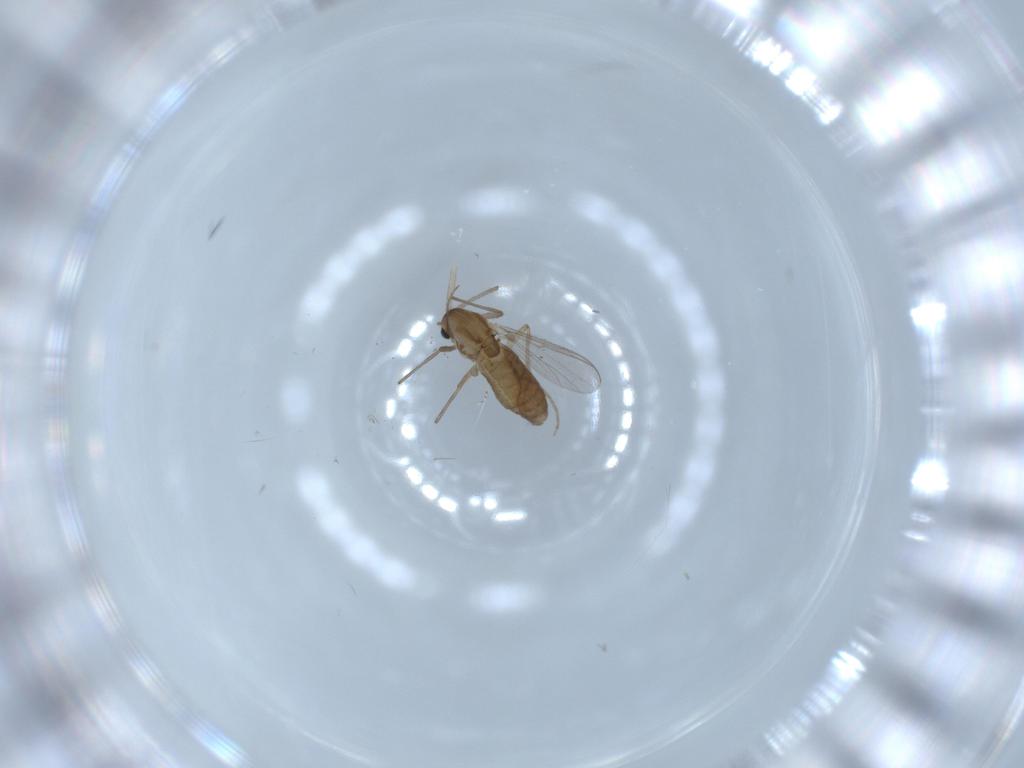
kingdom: Animalia
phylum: Arthropoda
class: Insecta
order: Diptera
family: Chironomidae
